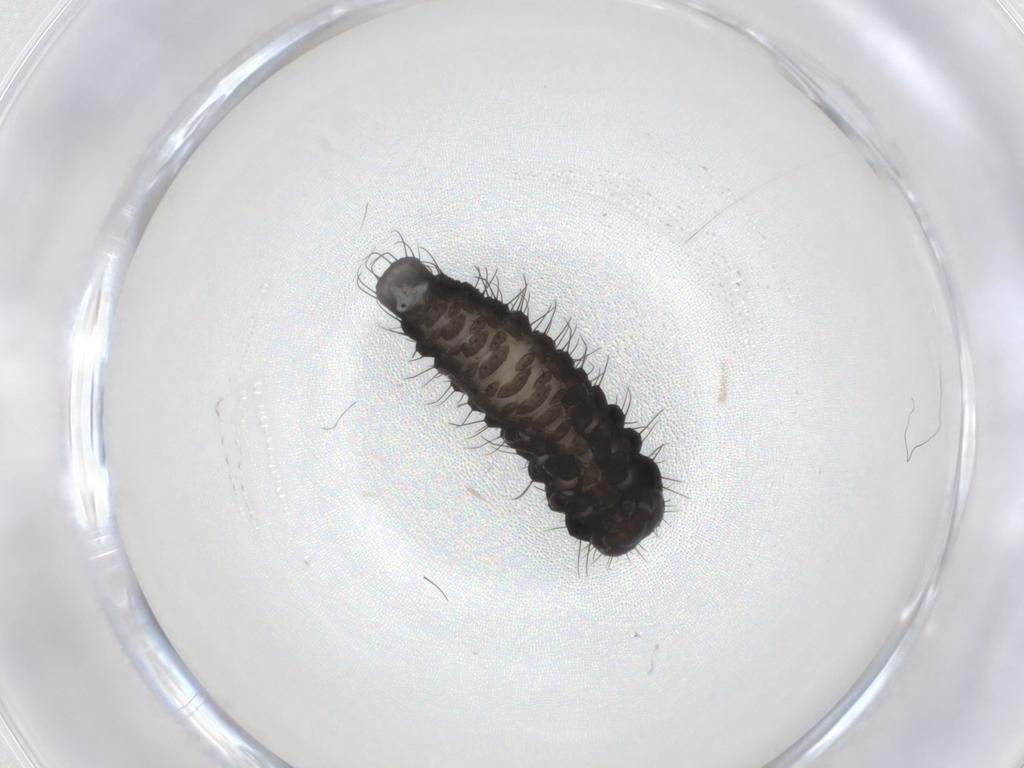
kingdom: Animalia
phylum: Arthropoda
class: Insecta
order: Coleoptera
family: Chrysomelidae
